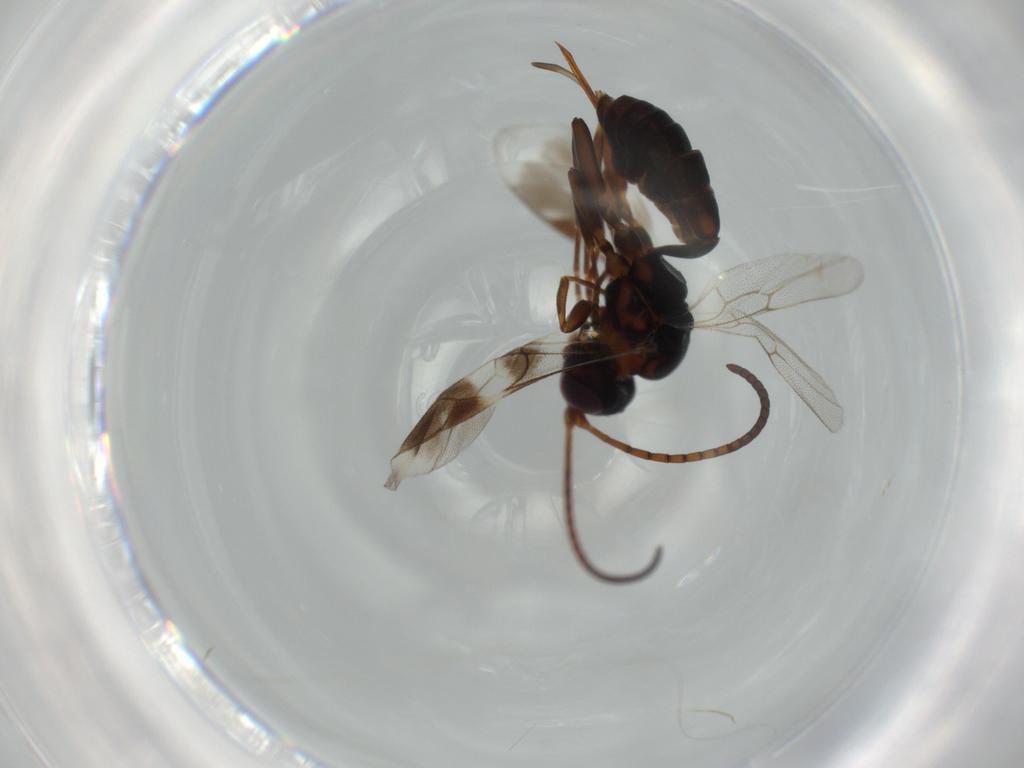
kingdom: Animalia
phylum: Arthropoda
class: Insecta
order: Hymenoptera
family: Ichneumonidae
